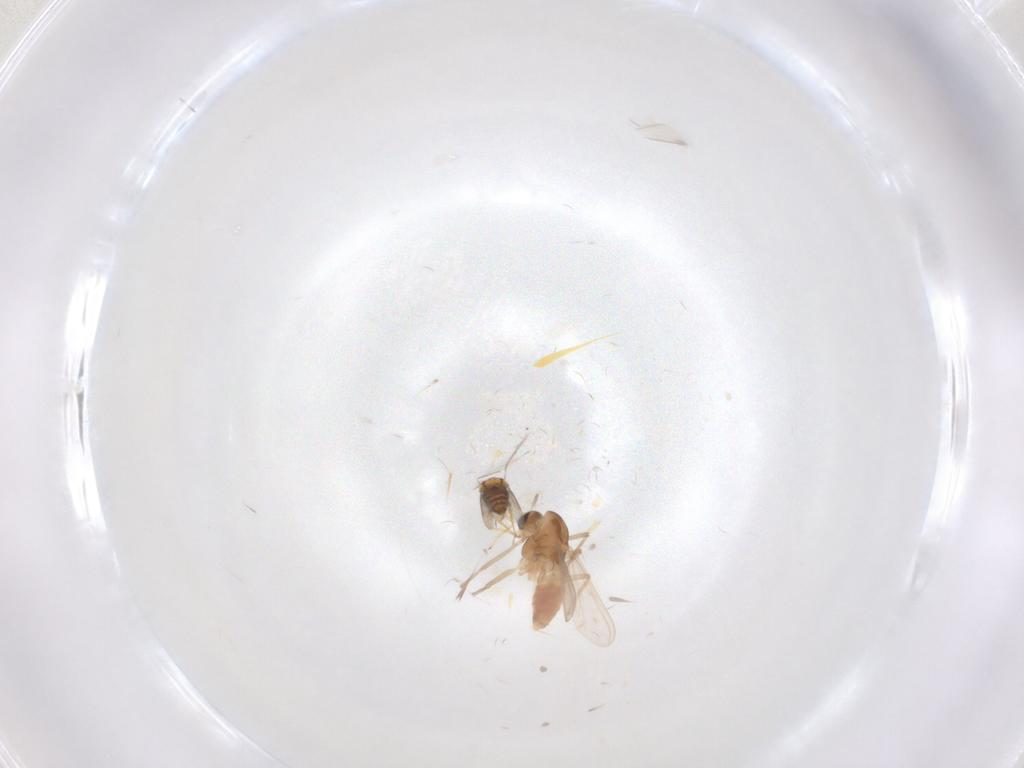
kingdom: Animalia
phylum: Arthropoda
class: Insecta
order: Diptera
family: Chironomidae
